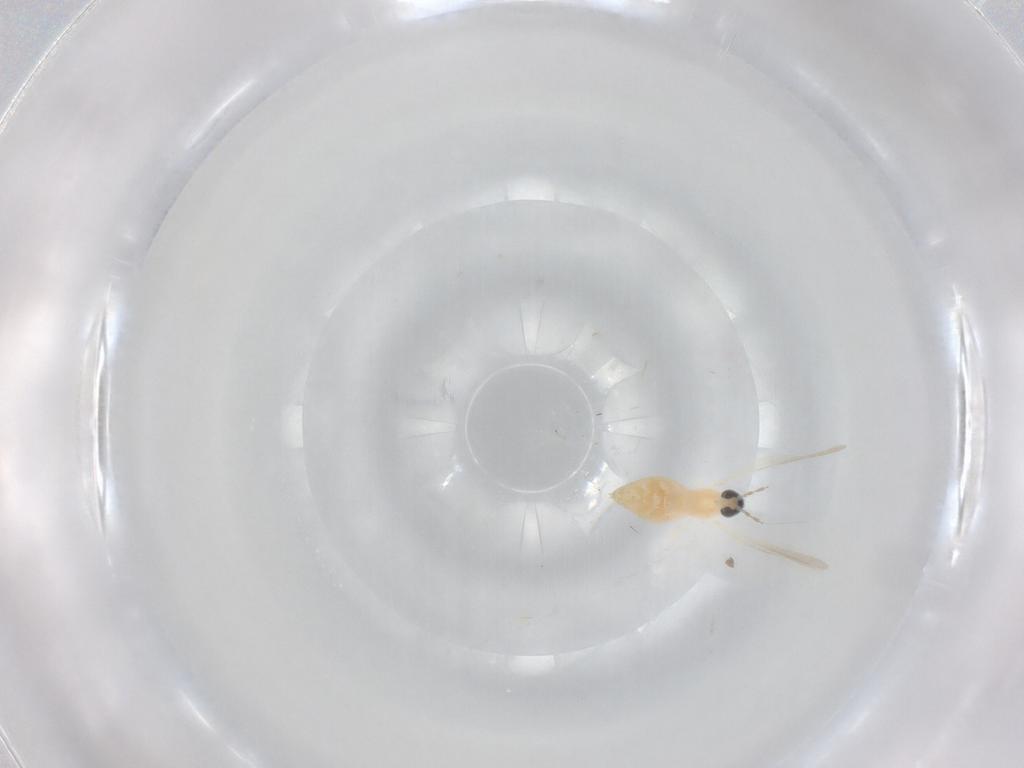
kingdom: Animalia
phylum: Arthropoda
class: Insecta
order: Diptera
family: Cecidomyiidae
